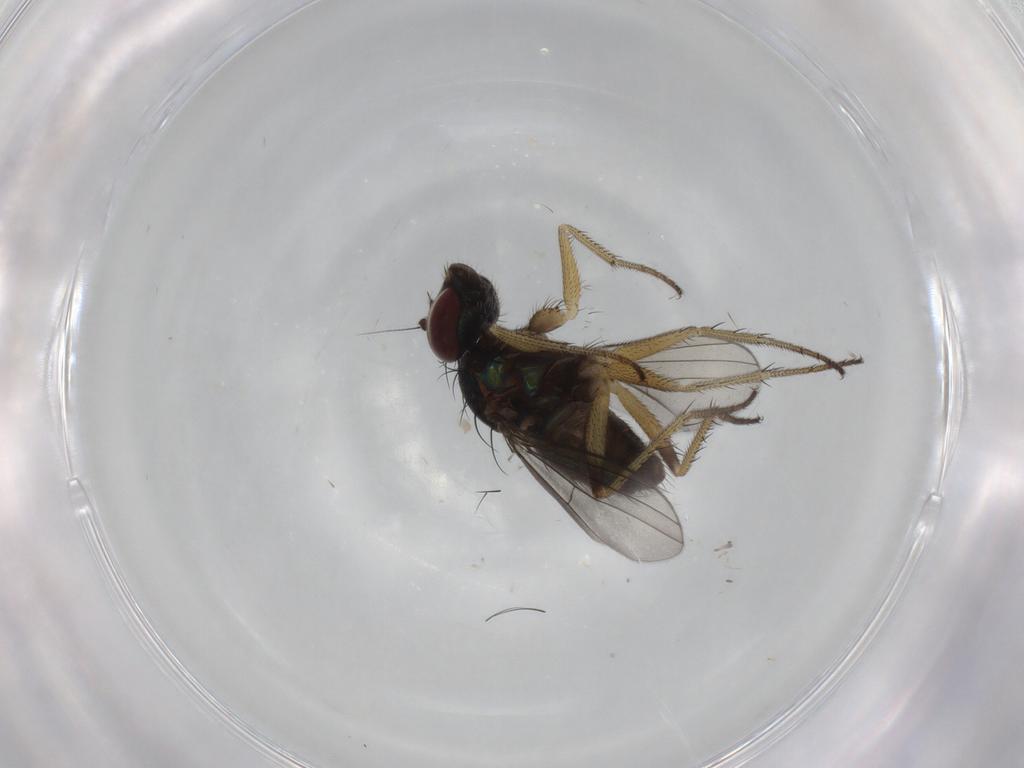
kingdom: Animalia
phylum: Arthropoda
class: Insecta
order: Diptera
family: Dolichopodidae
